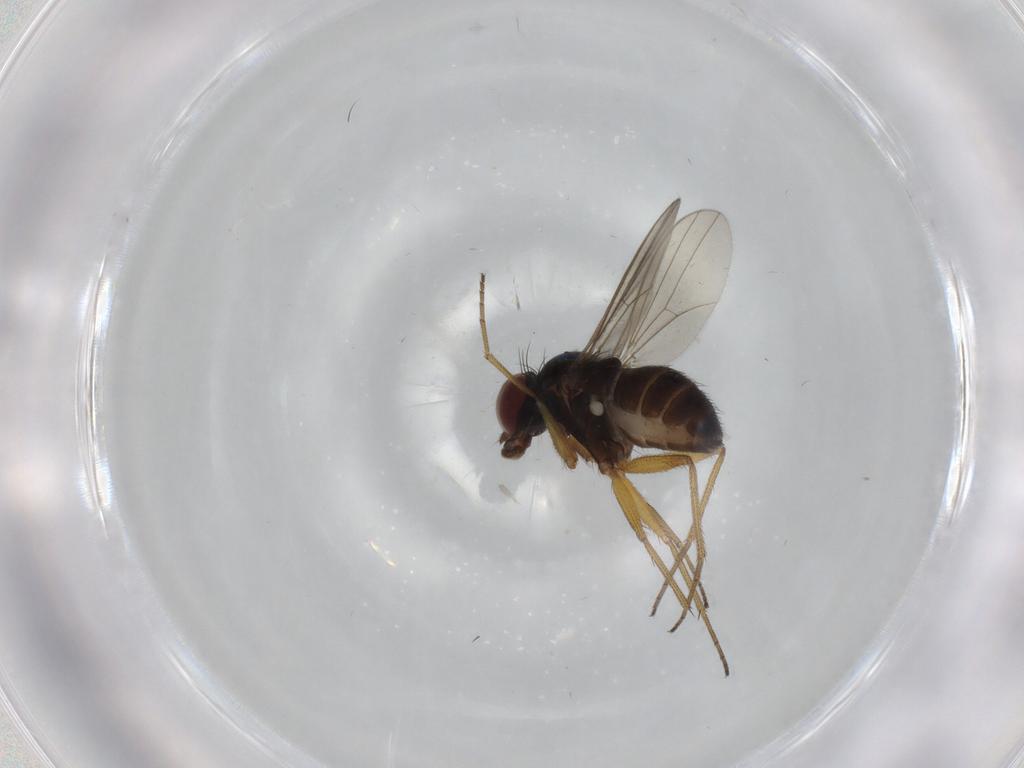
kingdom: Animalia
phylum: Arthropoda
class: Insecta
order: Diptera
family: Dolichopodidae
